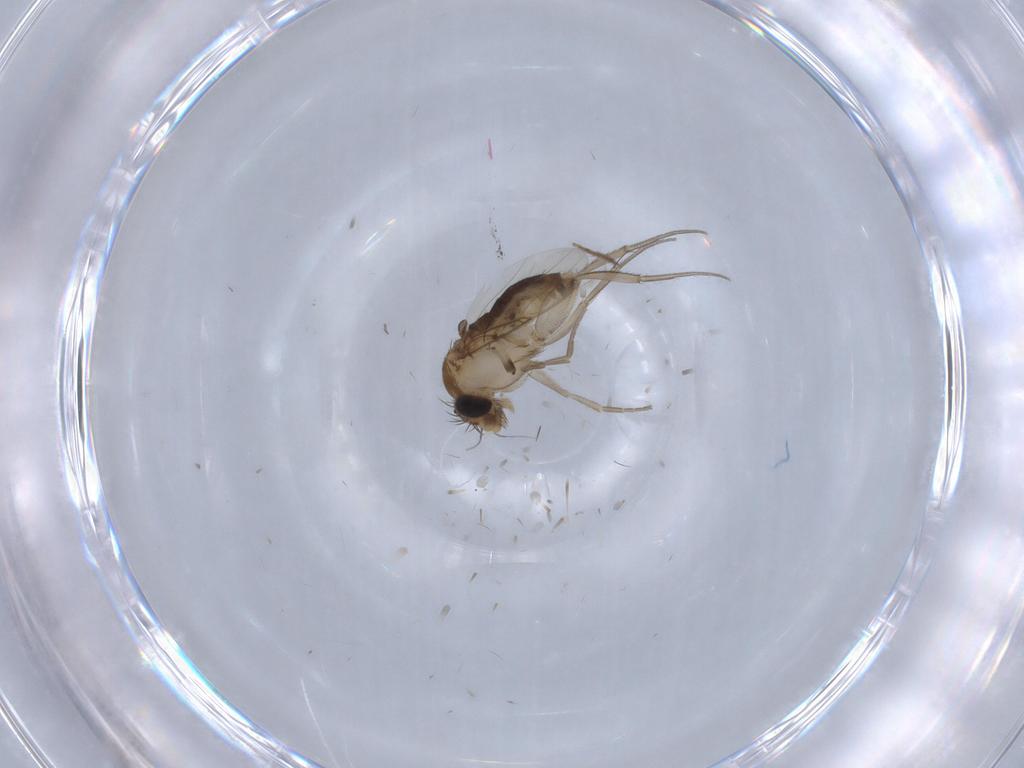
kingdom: Animalia
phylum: Arthropoda
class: Insecta
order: Diptera
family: Phoridae
